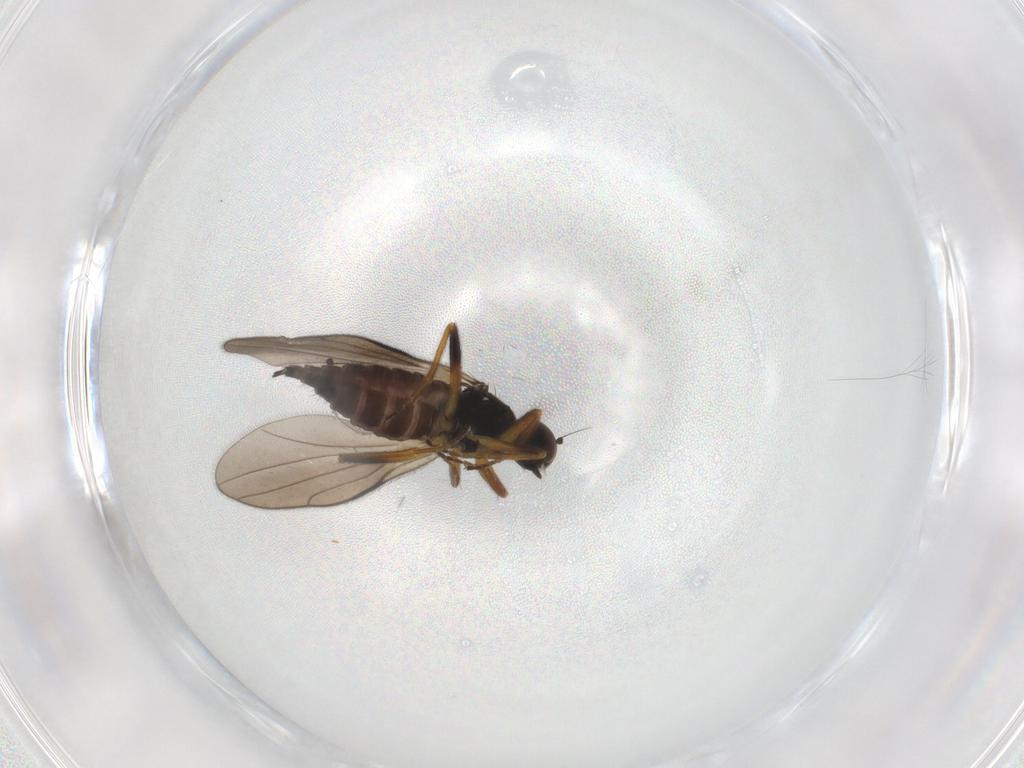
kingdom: Animalia
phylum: Arthropoda
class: Insecta
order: Diptera
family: Hybotidae
